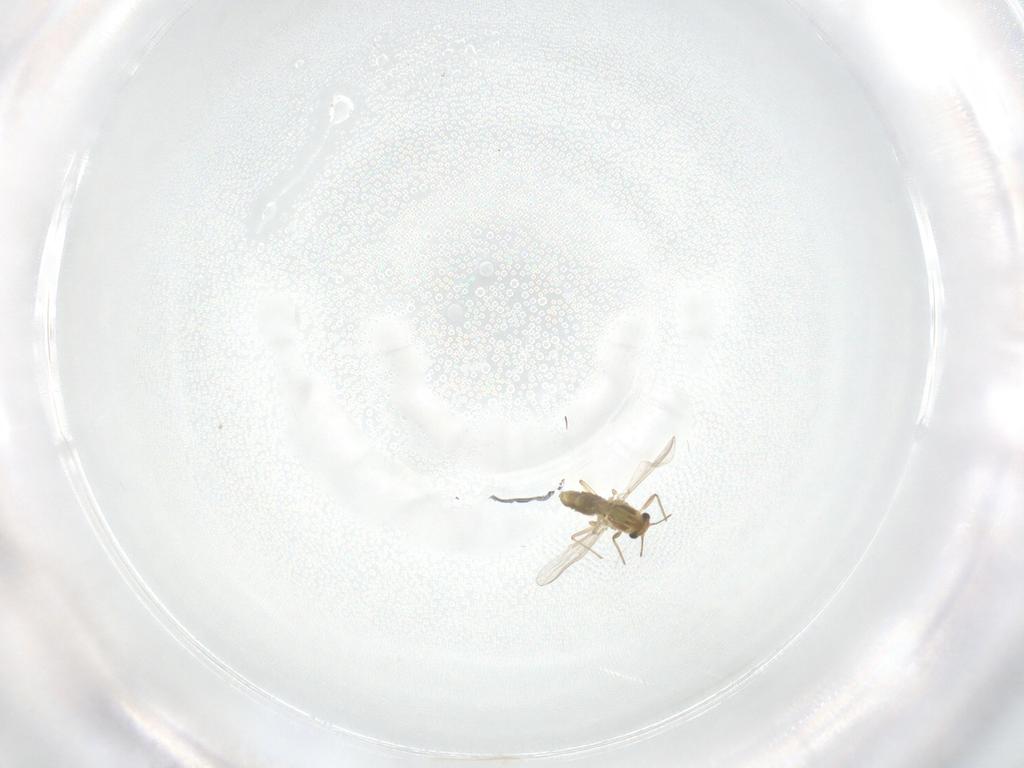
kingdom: Animalia
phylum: Arthropoda
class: Insecta
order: Diptera
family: Chironomidae
